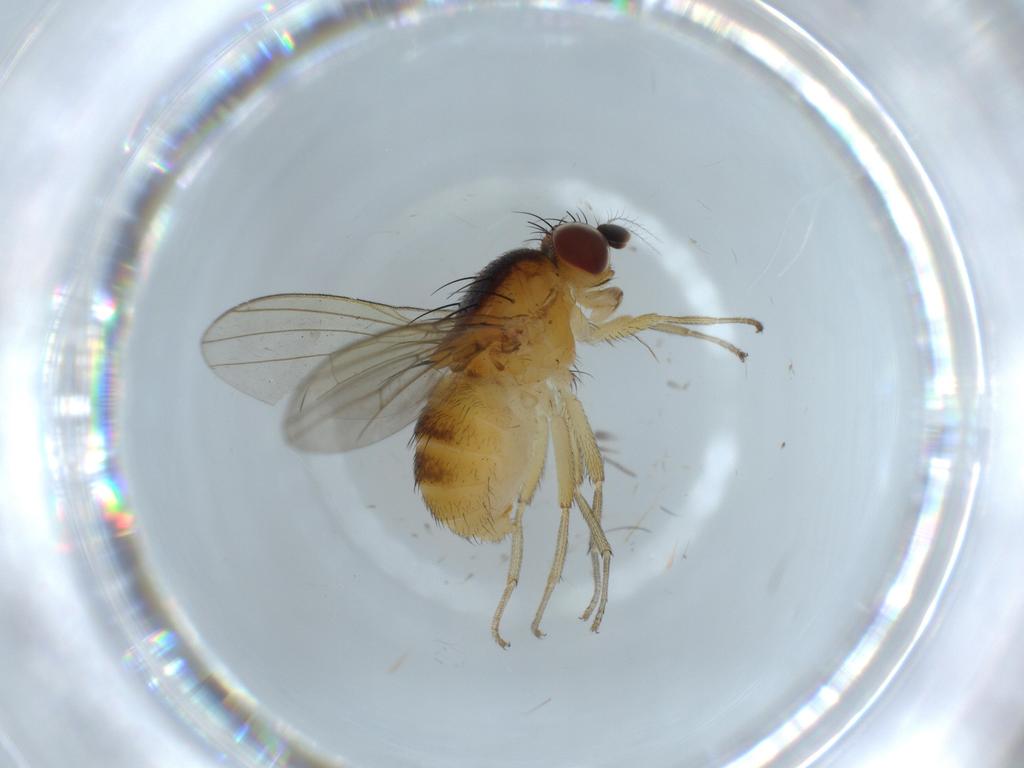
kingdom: Animalia
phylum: Arthropoda
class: Insecta
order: Diptera
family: Lauxaniidae
